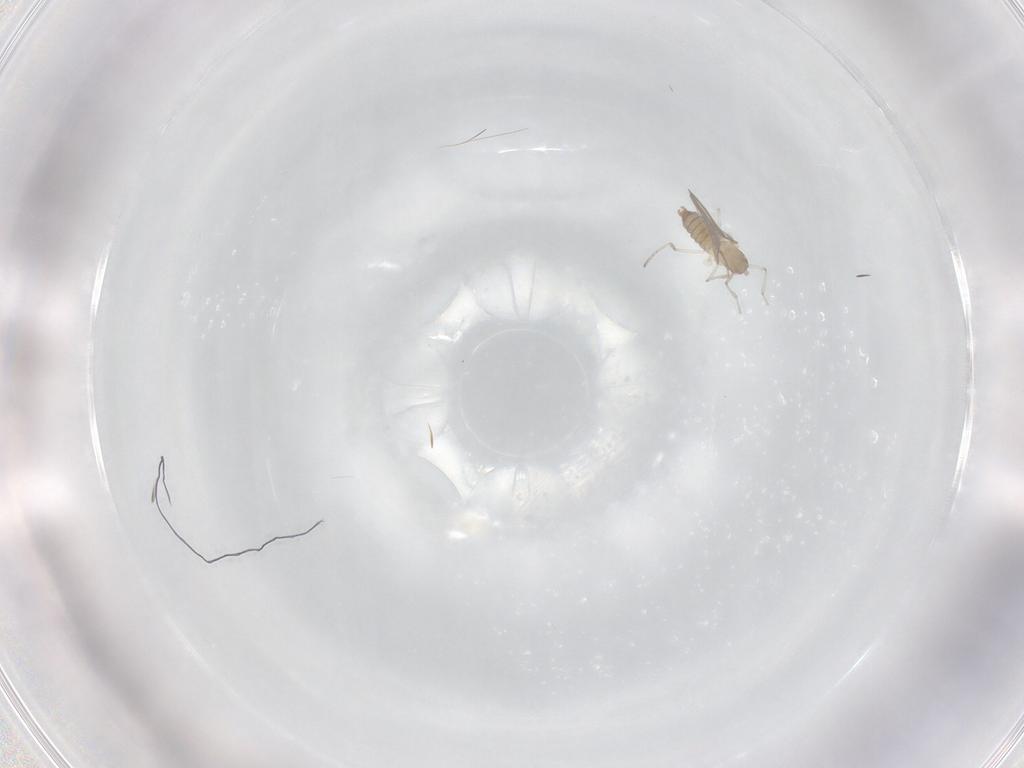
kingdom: Animalia
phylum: Arthropoda
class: Insecta
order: Diptera
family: Cecidomyiidae
